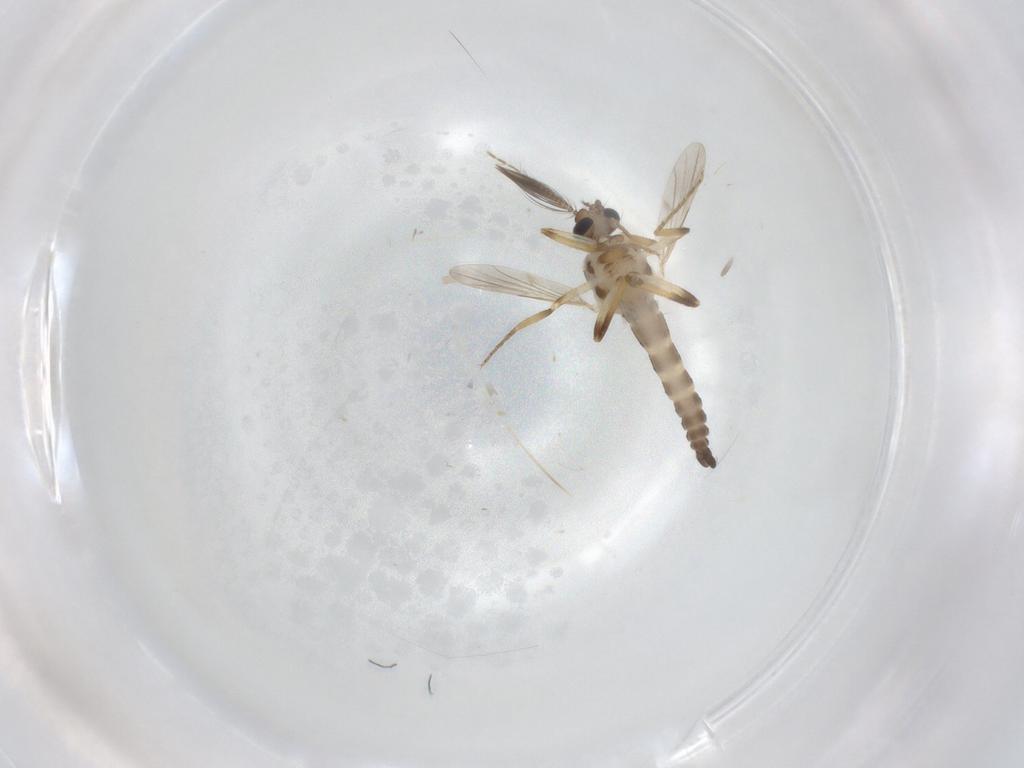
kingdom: Animalia
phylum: Arthropoda
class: Insecta
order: Diptera
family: Ceratopogonidae
